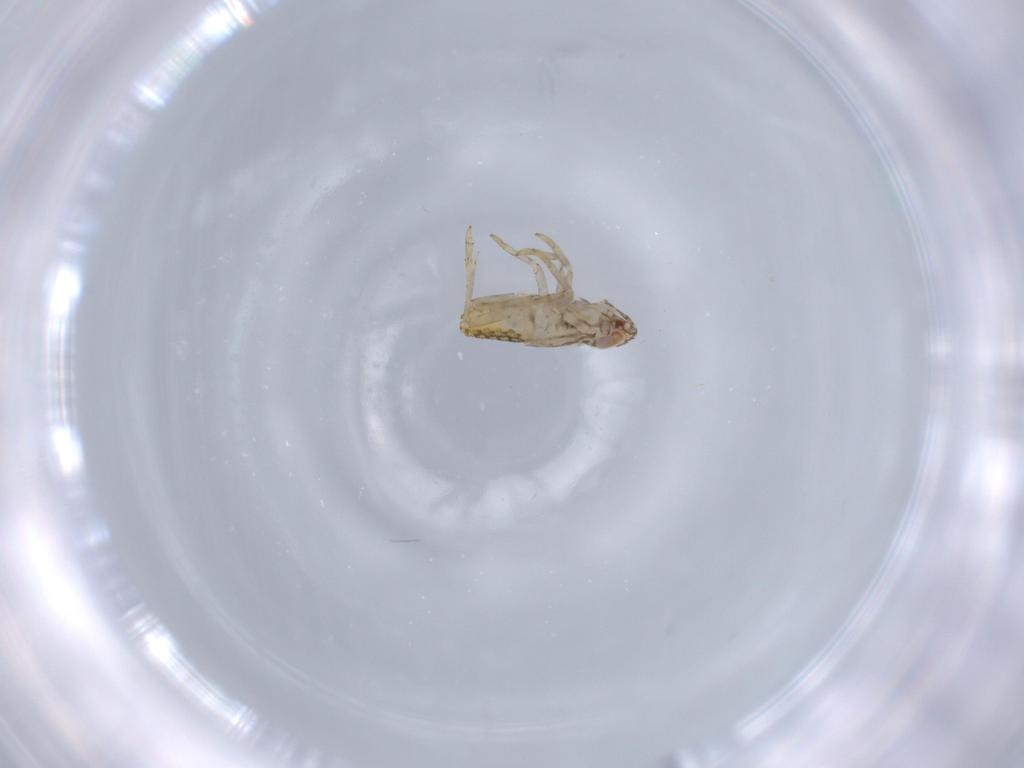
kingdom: Animalia
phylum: Arthropoda
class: Insecta
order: Hemiptera
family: Delphacidae
